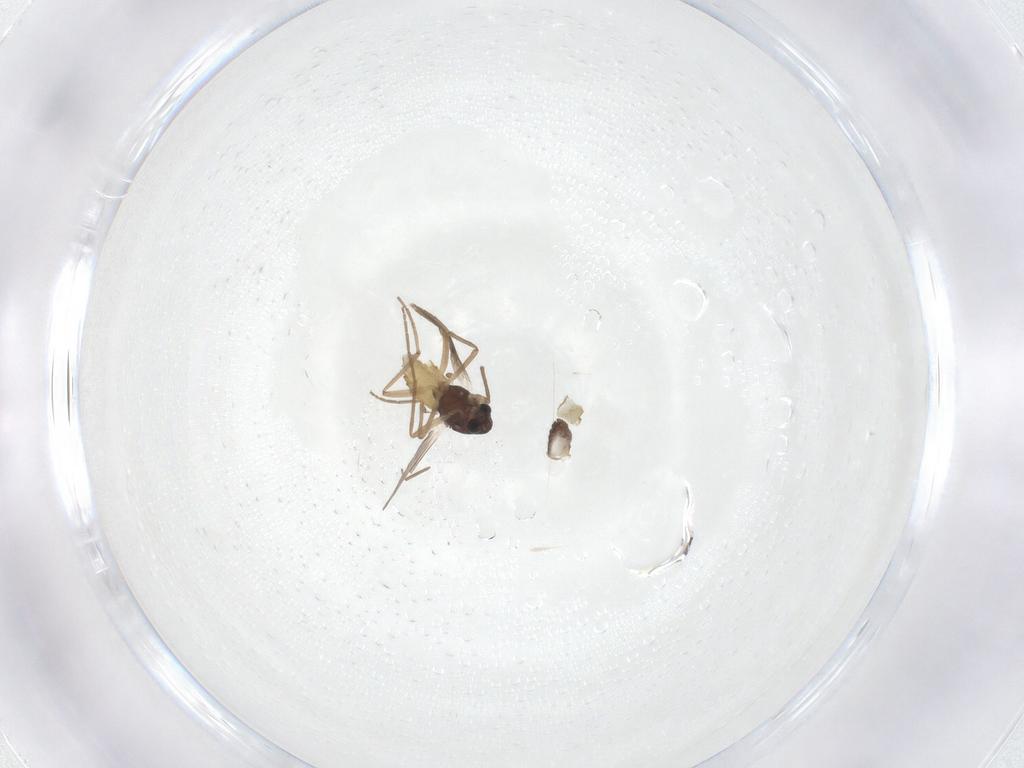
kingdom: Animalia
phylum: Arthropoda
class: Insecta
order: Diptera
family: Chironomidae
